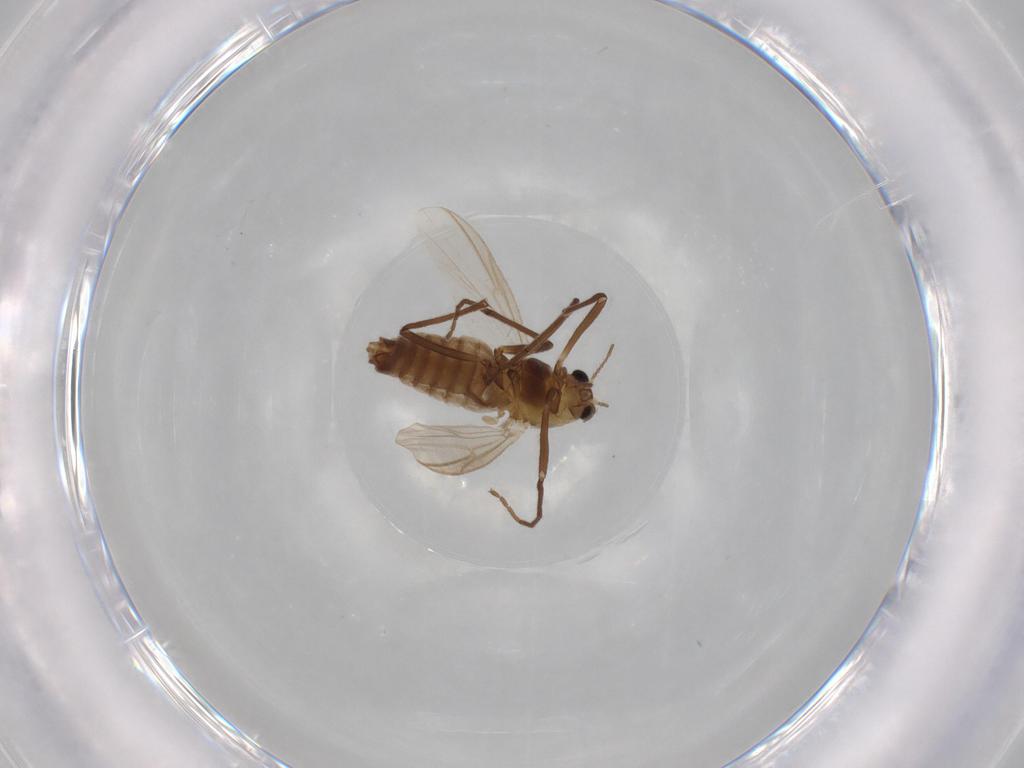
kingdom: Animalia
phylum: Arthropoda
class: Insecta
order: Diptera
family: Chironomidae
